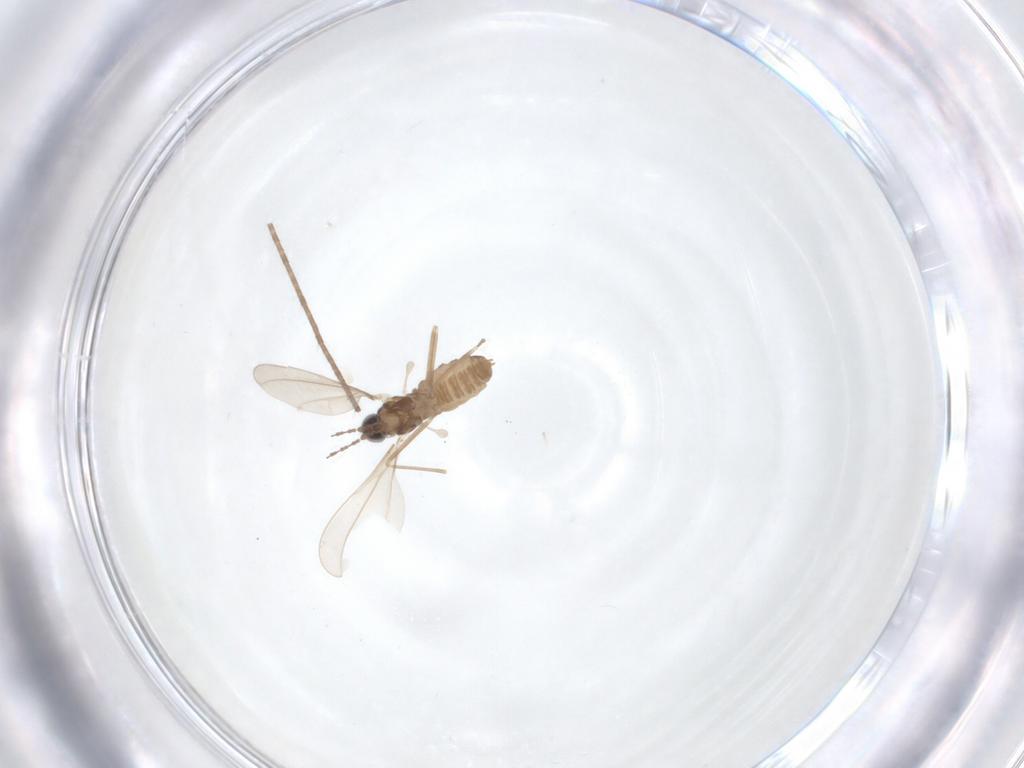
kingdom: Animalia
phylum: Arthropoda
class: Insecta
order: Diptera
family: Cecidomyiidae
